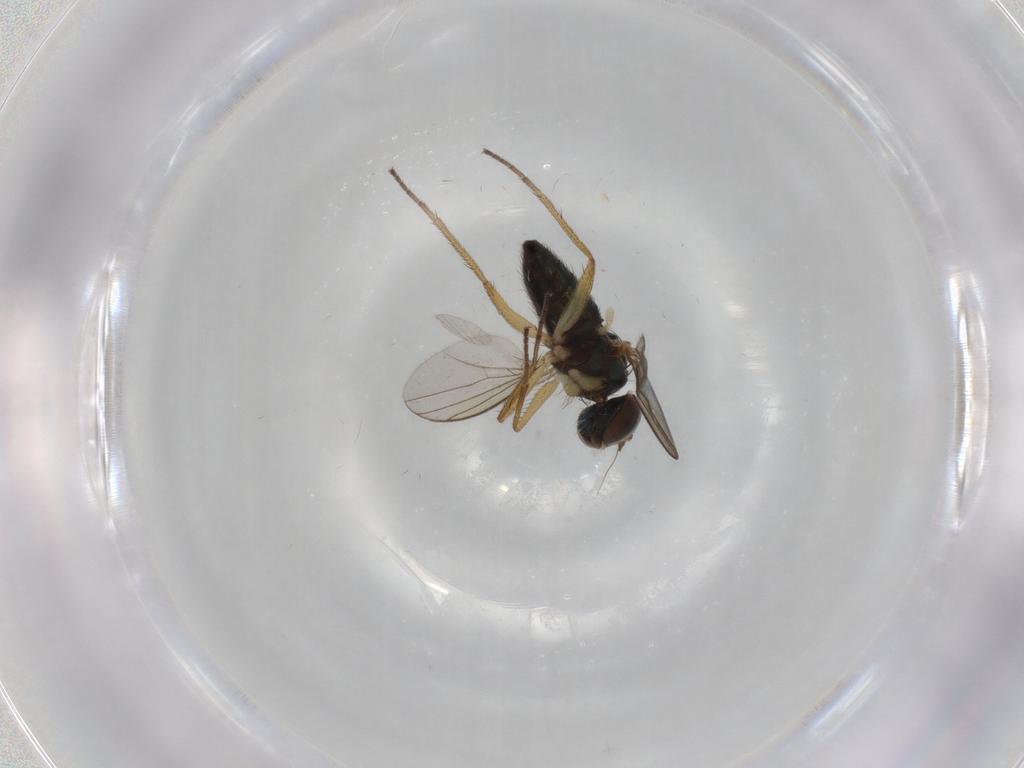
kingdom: Animalia
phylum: Arthropoda
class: Insecta
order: Diptera
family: Dolichopodidae
